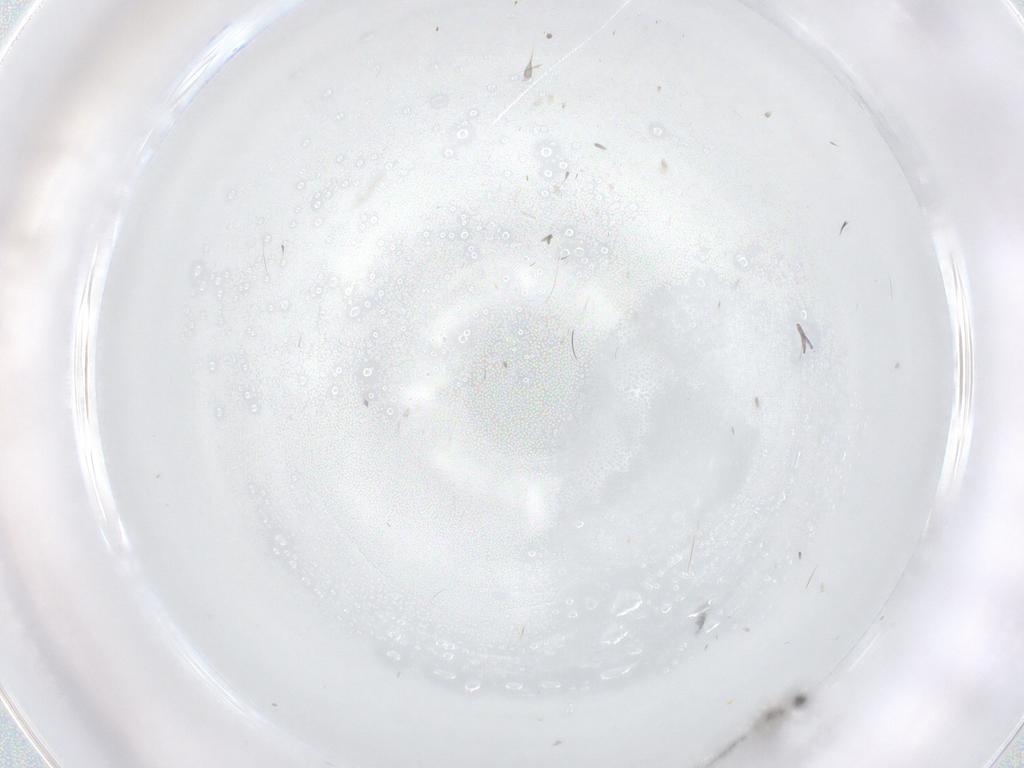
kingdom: Animalia
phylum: Arthropoda
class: Insecta
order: Diptera
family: Cecidomyiidae
